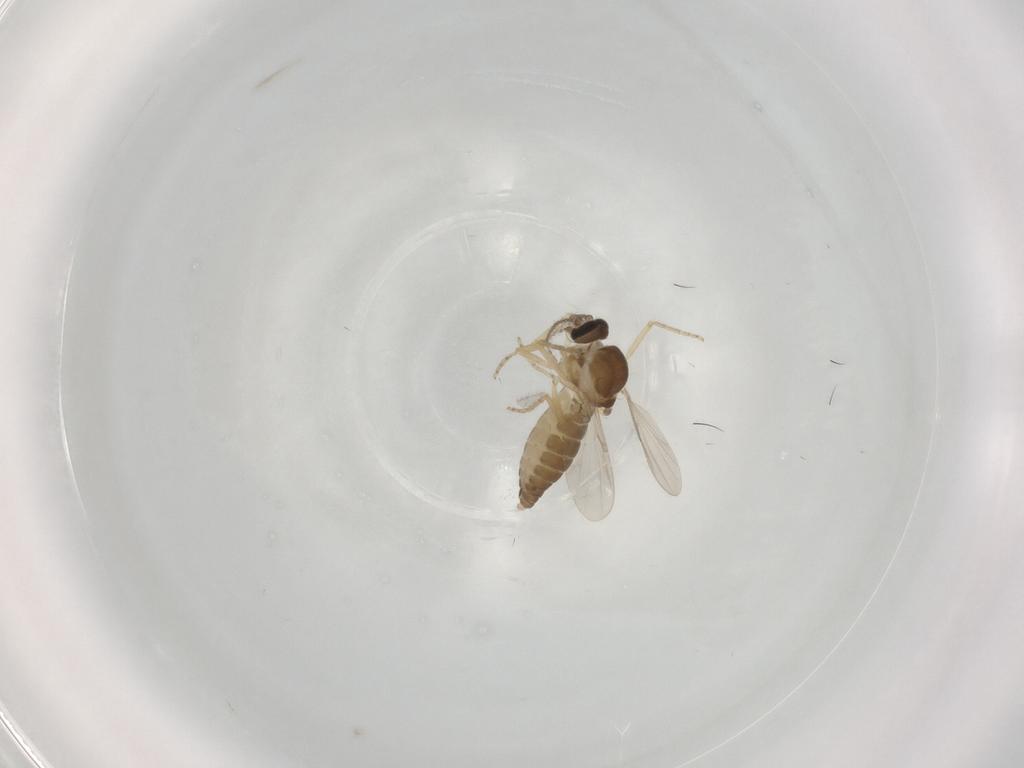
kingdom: Animalia
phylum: Arthropoda
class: Insecta
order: Diptera
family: Ceratopogonidae
